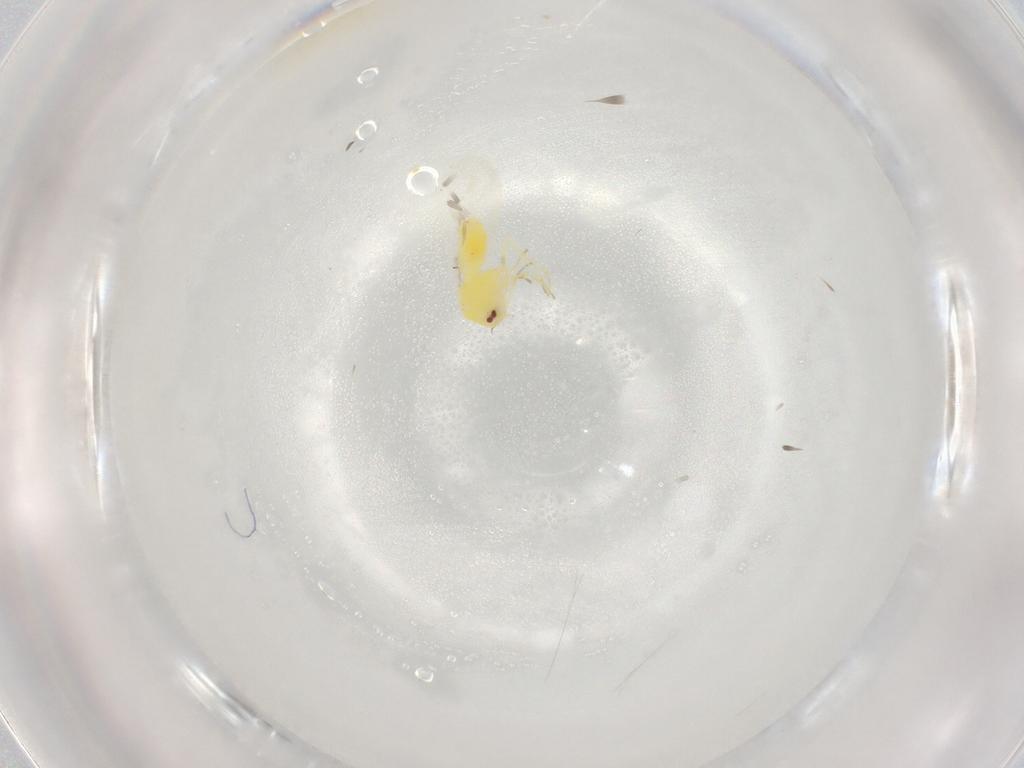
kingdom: Animalia
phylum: Arthropoda
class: Insecta
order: Hemiptera
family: Aleyrodidae
